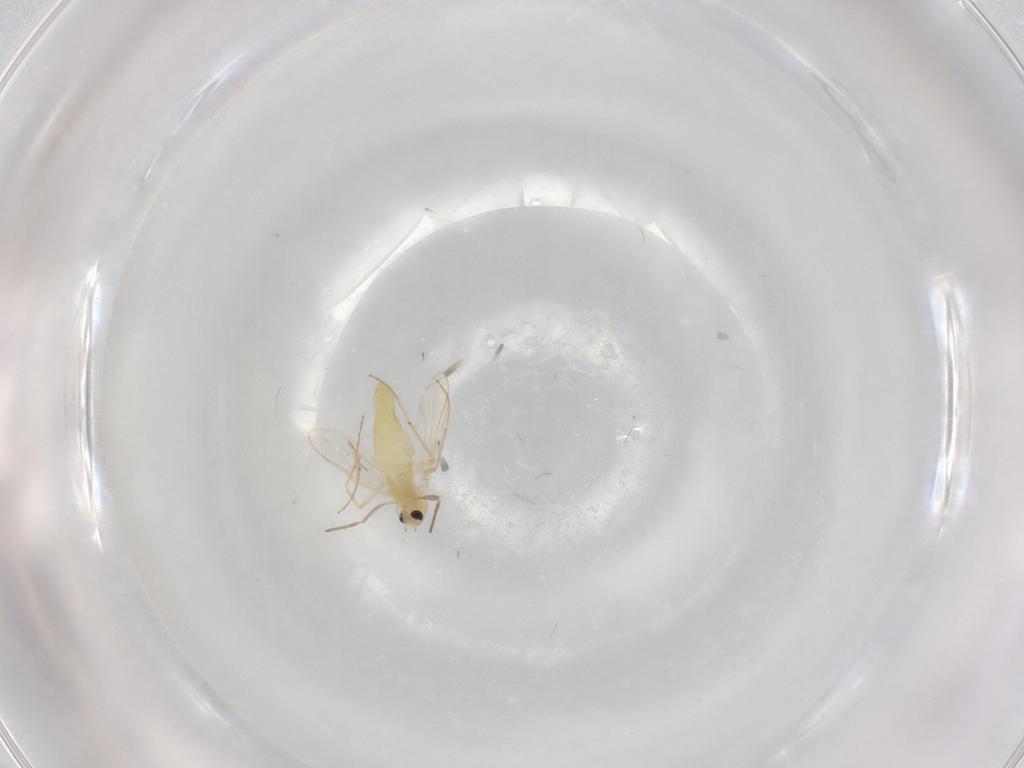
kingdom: Animalia
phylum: Arthropoda
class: Insecta
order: Diptera
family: Chironomidae
